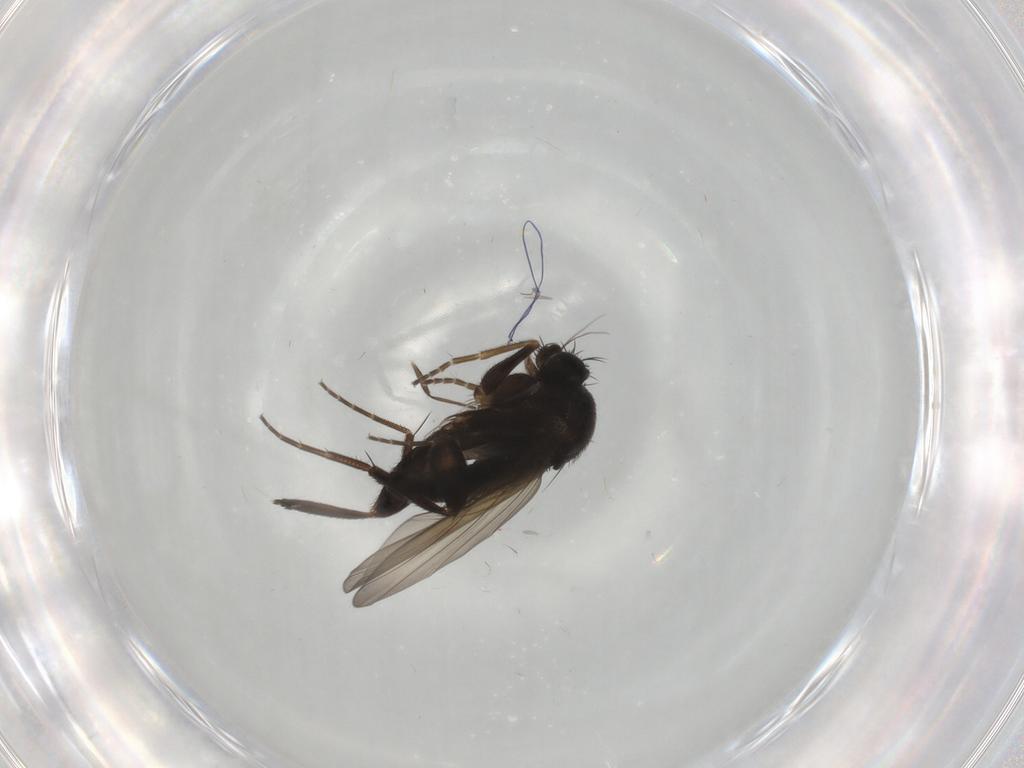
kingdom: Animalia
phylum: Arthropoda
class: Insecta
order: Diptera
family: Phoridae
